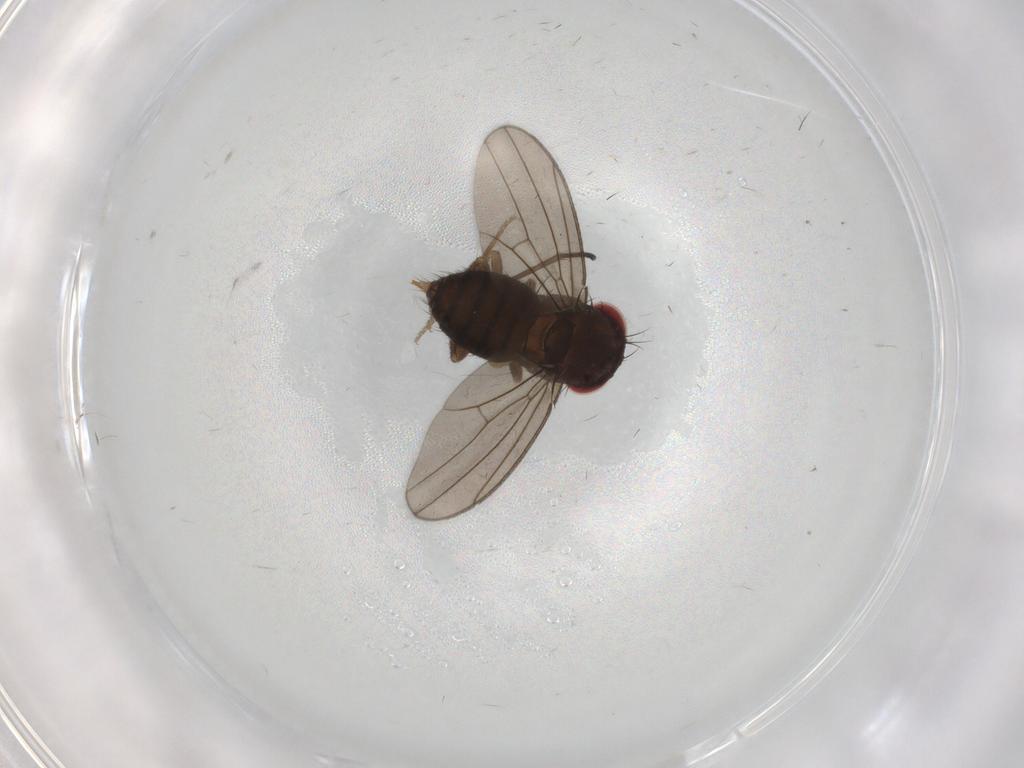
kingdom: Animalia
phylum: Arthropoda
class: Insecta
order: Diptera
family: Drosophilidae
